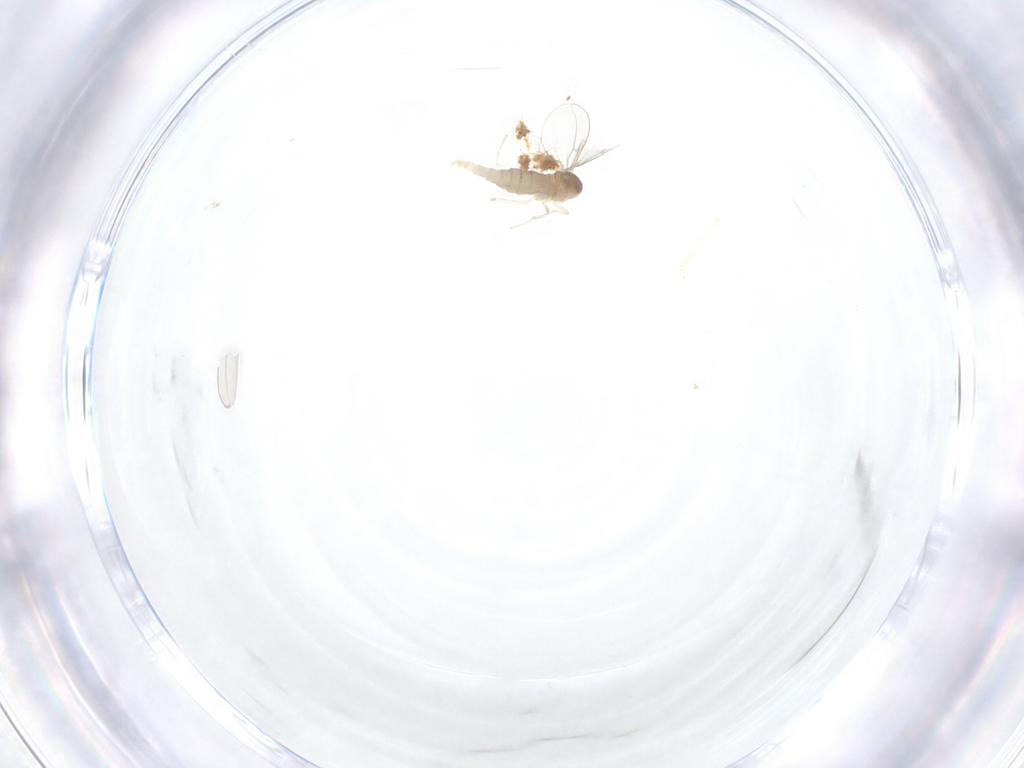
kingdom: Animalia
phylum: Arthropoda
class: Insecta
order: Diptera
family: Cecidomyiidae
